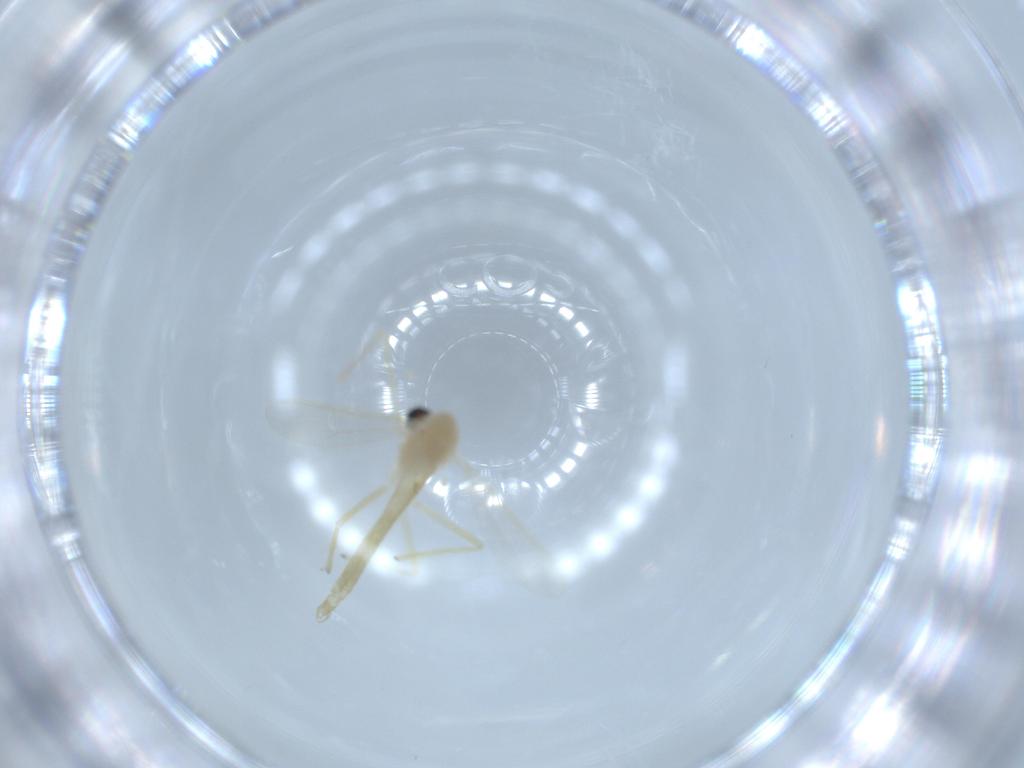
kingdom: Animalia
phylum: Arthropoda
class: Insecta
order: Diptera
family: Chironomidae
